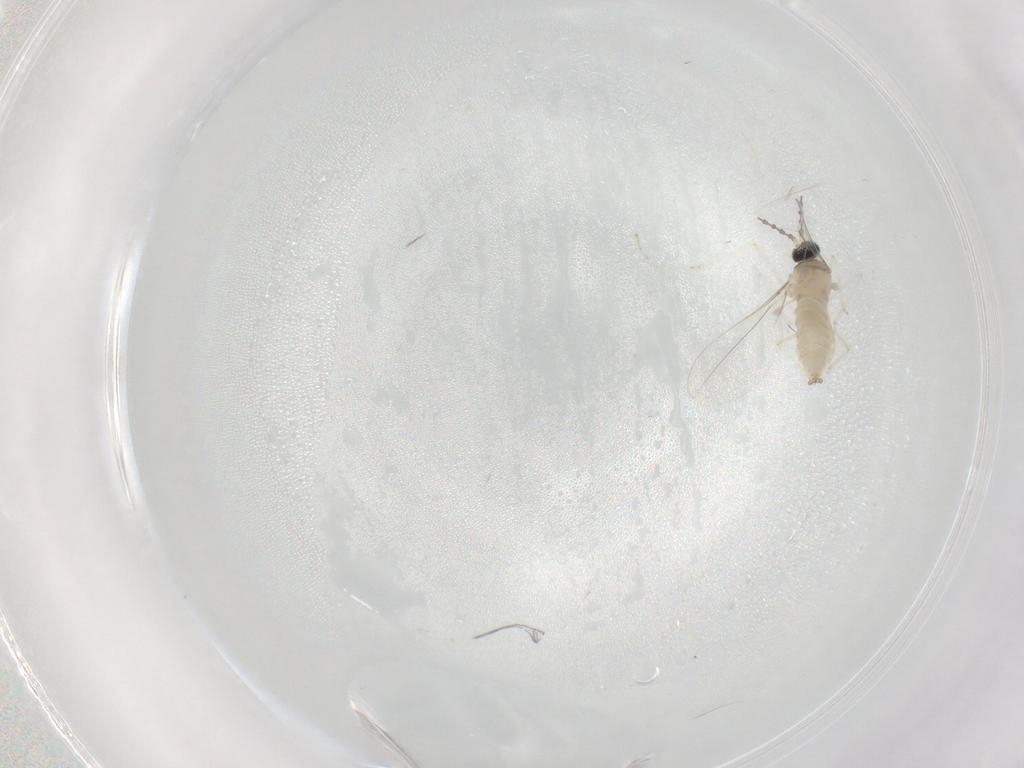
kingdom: Animalia
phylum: Arthropoda
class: Insecta
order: Diptera
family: Cecidomyiidae
